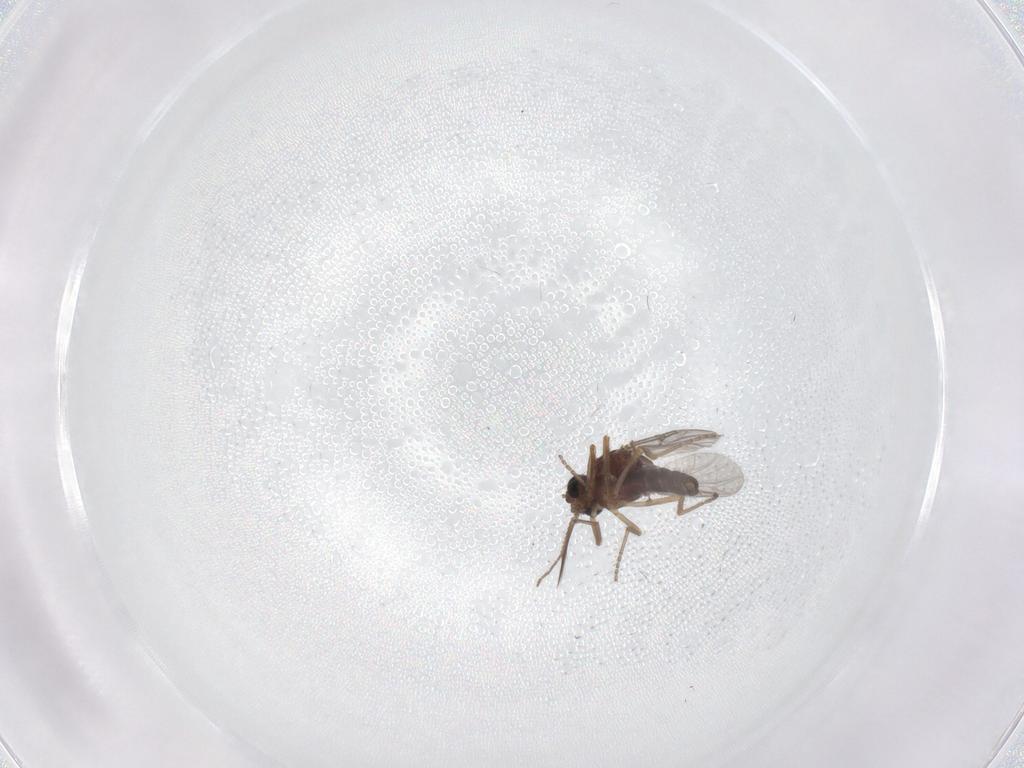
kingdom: Animalia
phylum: Arthropoda
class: Insecta
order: Diptera
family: Ceratopogonidae
